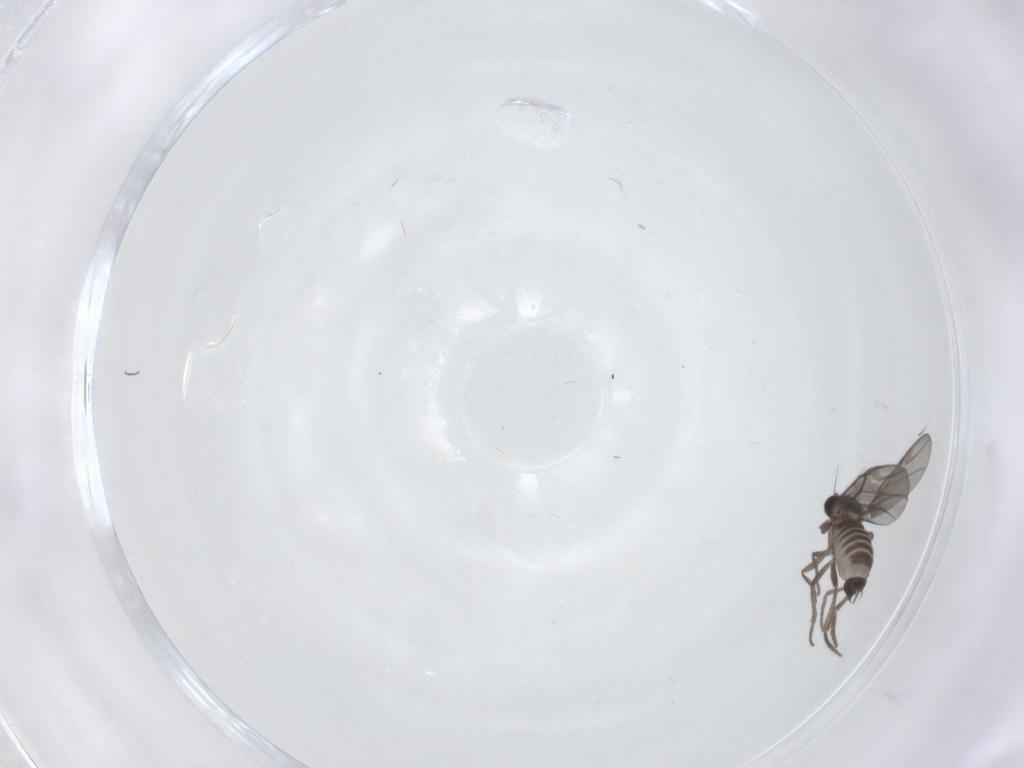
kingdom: Animalia
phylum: Arthropoda
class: Insecta
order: Diptera
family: Phoridae
